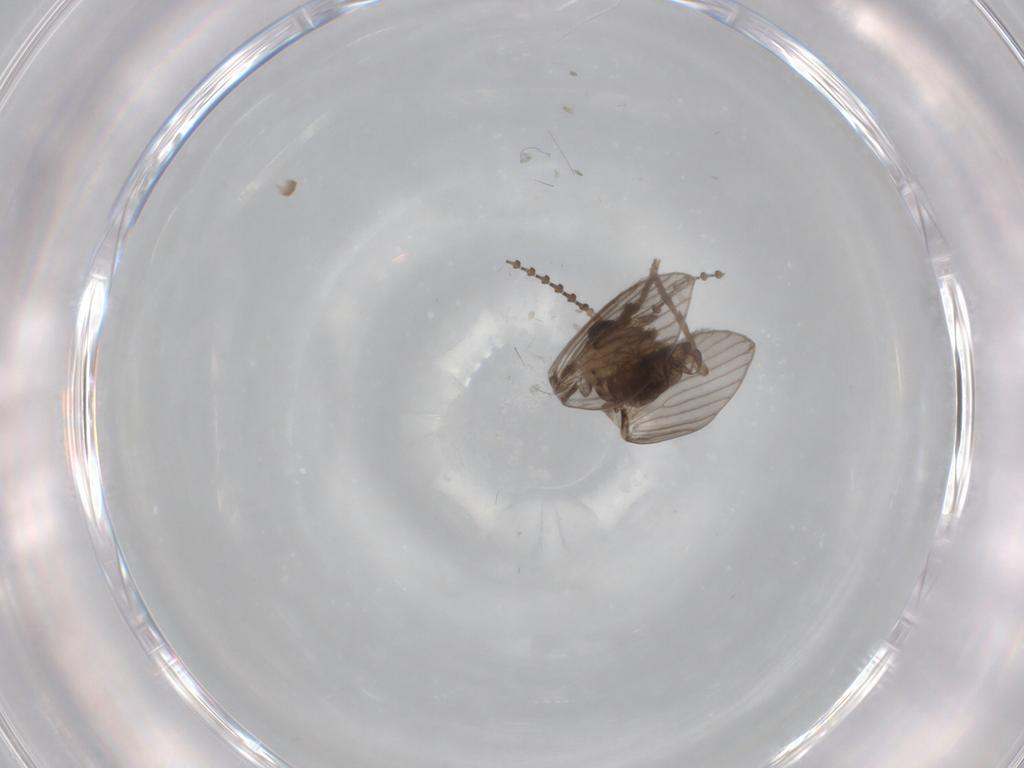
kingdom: Animalia
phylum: Arthropoda
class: Insecta
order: Diptera
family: Psychodidae
